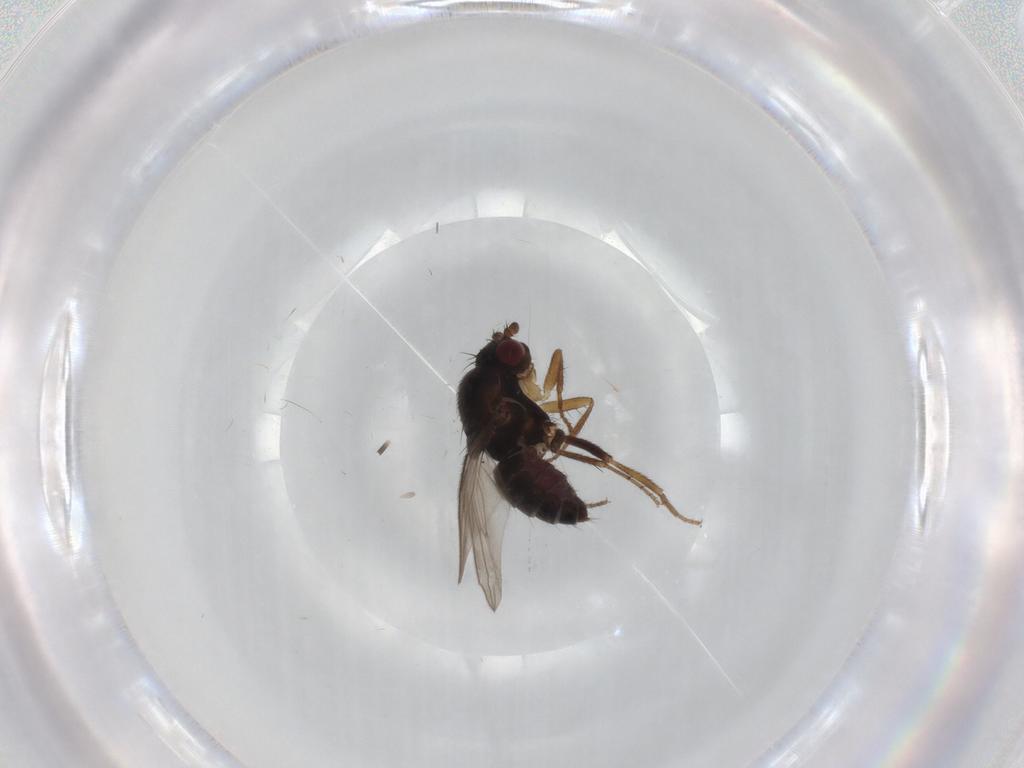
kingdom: Animalia
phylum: Arthropoda
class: Insecta
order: Diptera
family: Sphaeroceridae
